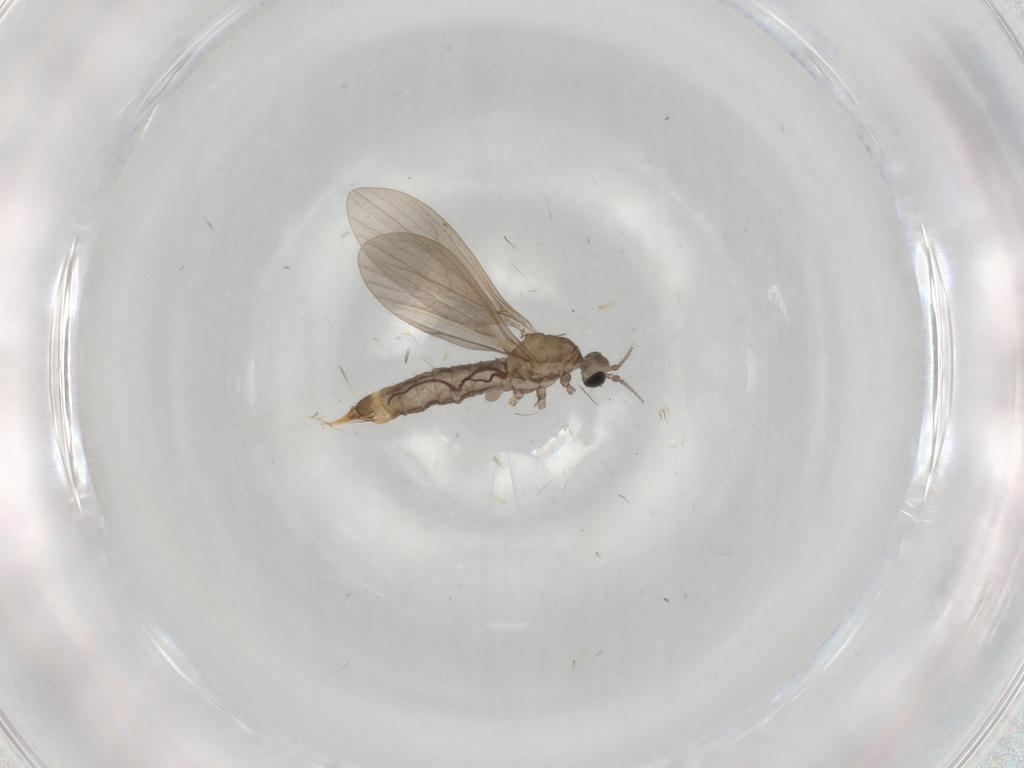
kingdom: Animalia
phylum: Arthropoda
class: Insecta
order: Diptera
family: Limoniidae
